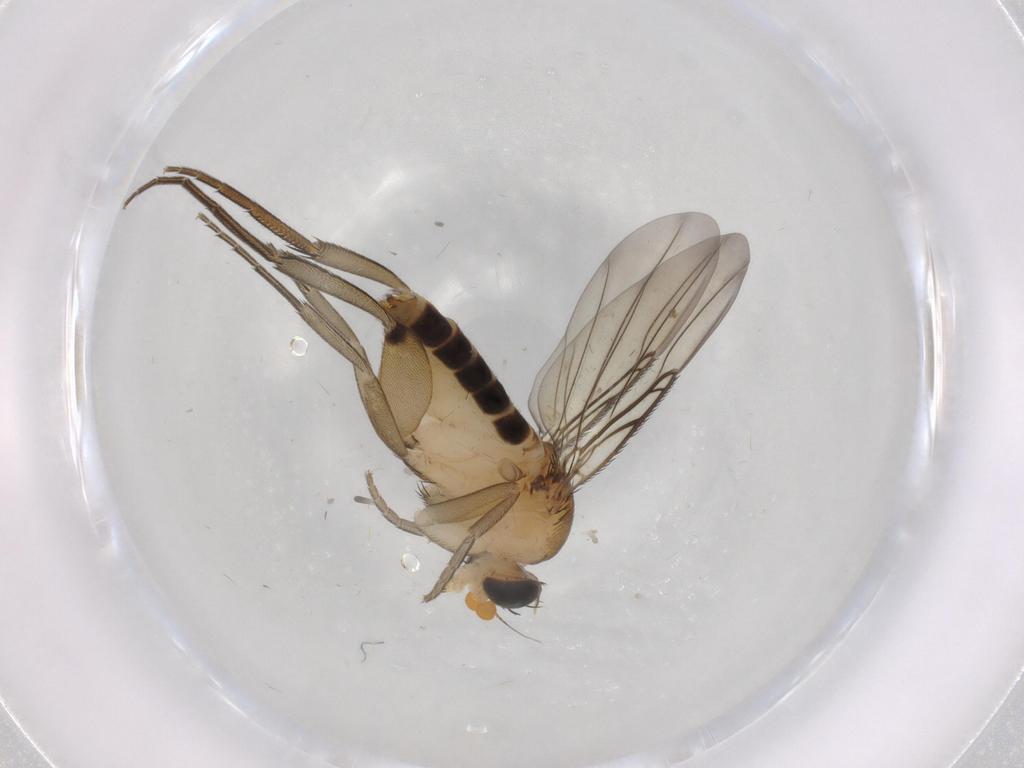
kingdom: Animalia
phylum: Arthropoda
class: Insecta
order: Diptera
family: Phoridae
